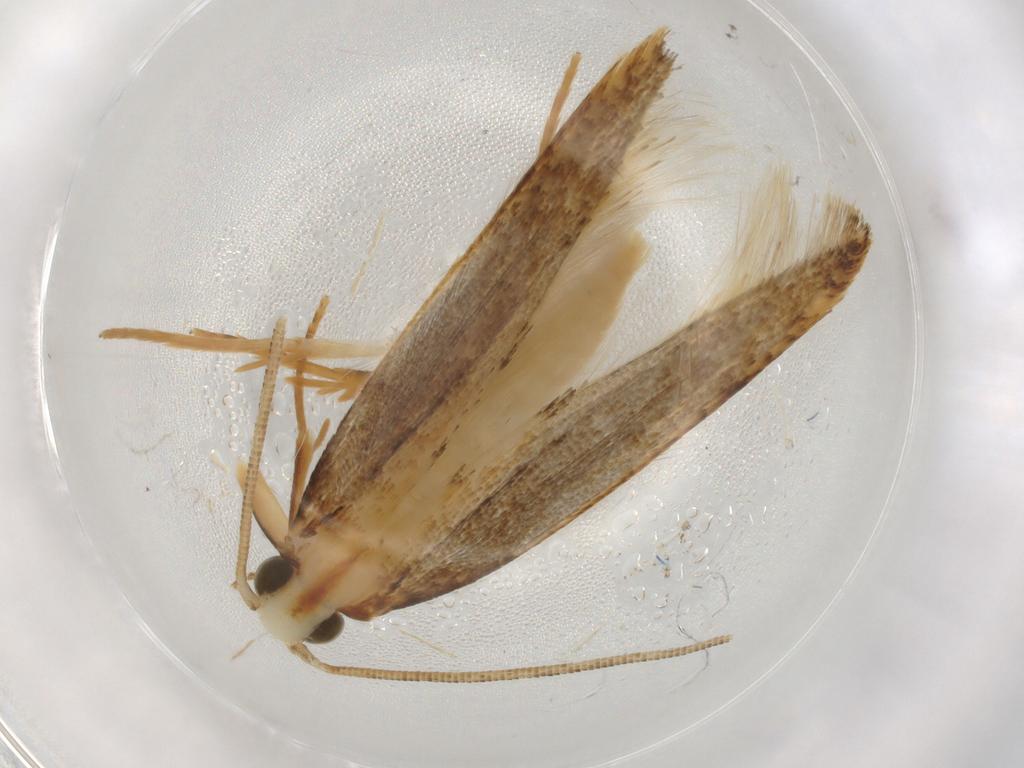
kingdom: Animalia
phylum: Arthropoda
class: Insecta
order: Lepidoptera
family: Tineidae
